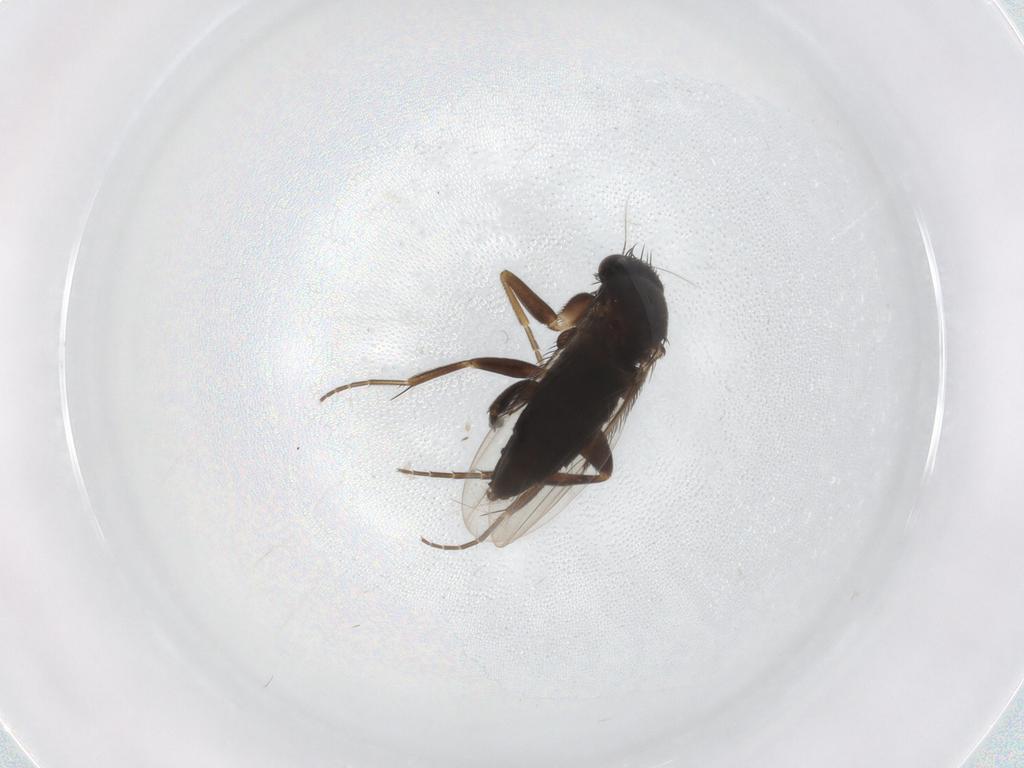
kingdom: Animalia
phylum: Arthropoda
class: Insecta
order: Diptera
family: Phoridae
